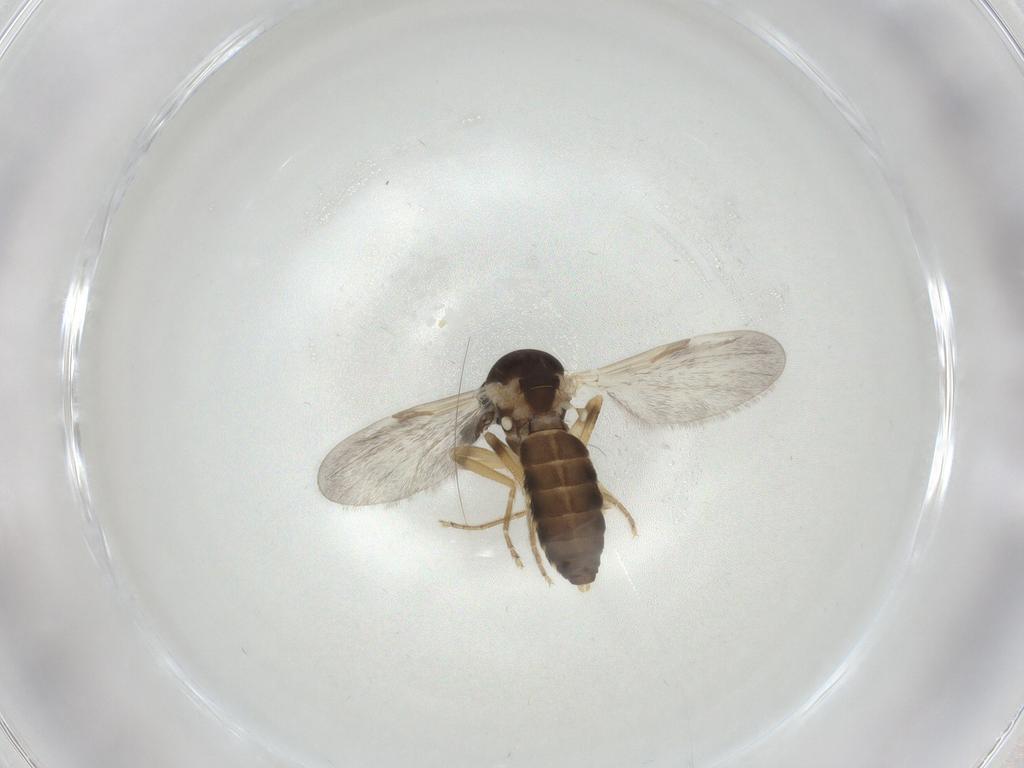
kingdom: Animalia
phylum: Arthropoda
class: Insecta
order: Diptera
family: Ceratopogonidae
